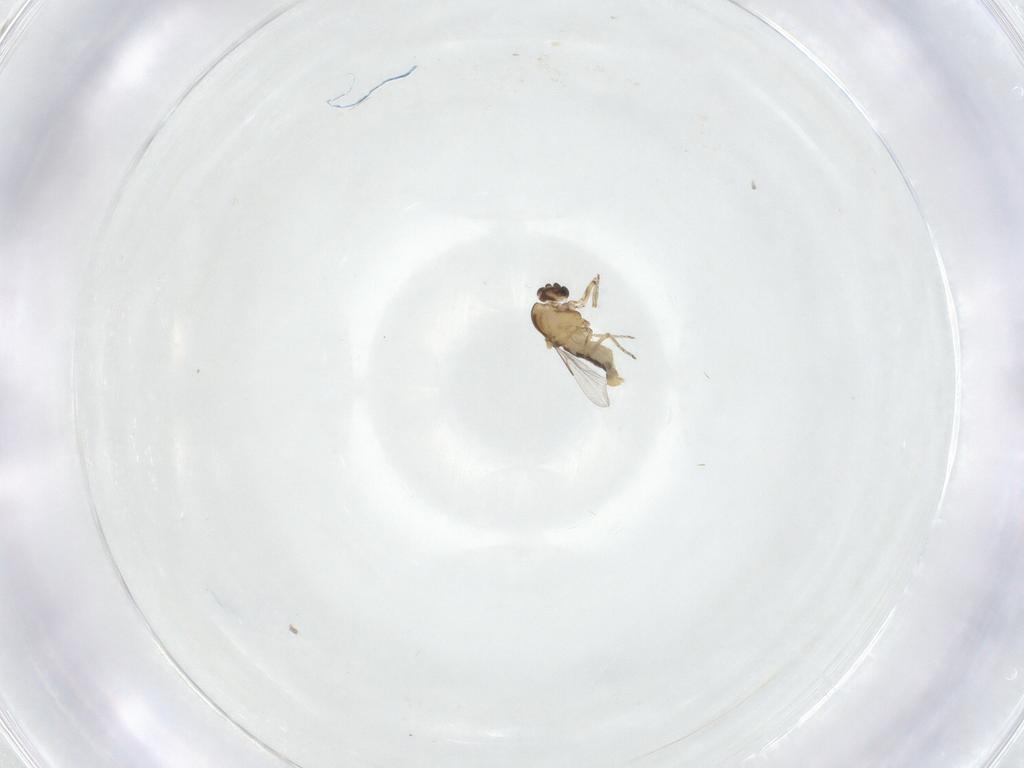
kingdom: Animalia
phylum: Arthropoda
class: Insecta
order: Diptera
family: Ceratopogonidae
